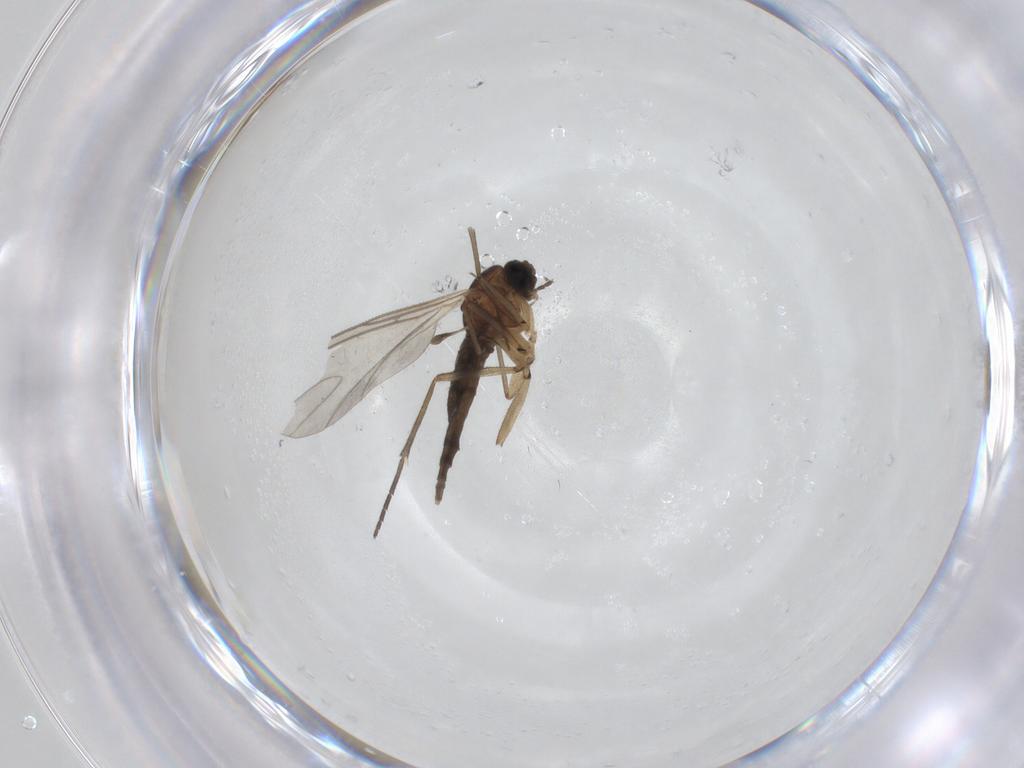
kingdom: Animalia
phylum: Arthropoda
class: Insecta
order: Diptera
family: Sciaridae
